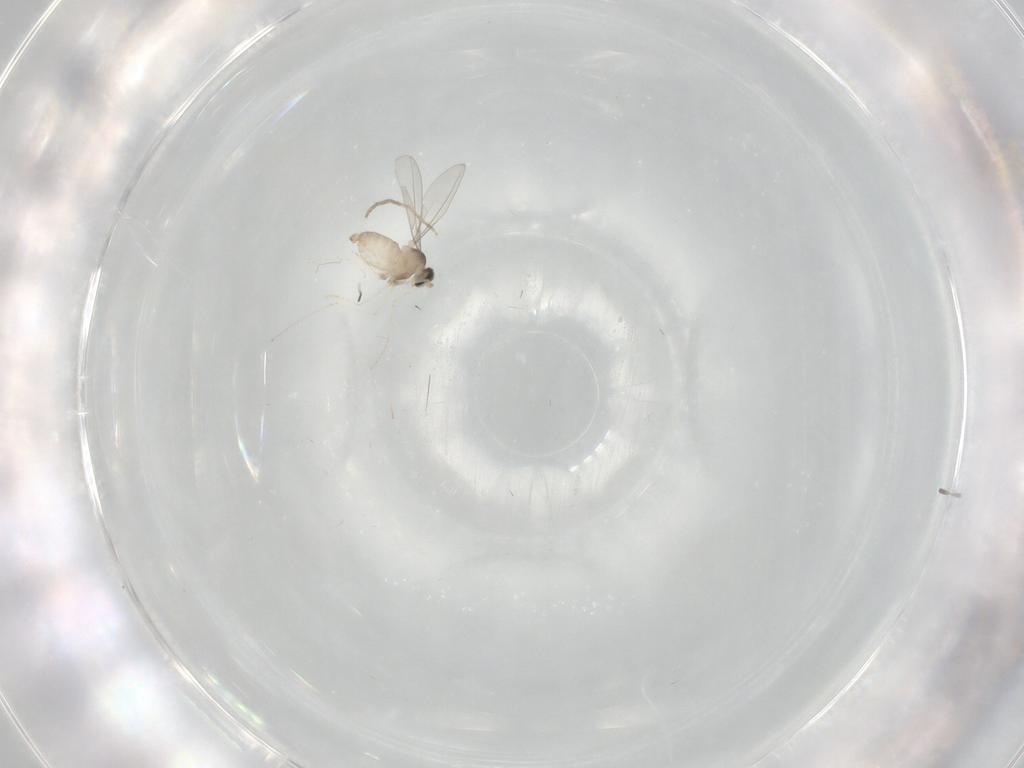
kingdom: Animalia
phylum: Arthropoda
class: Insecta
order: Diptera
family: Cecidomyiidae
